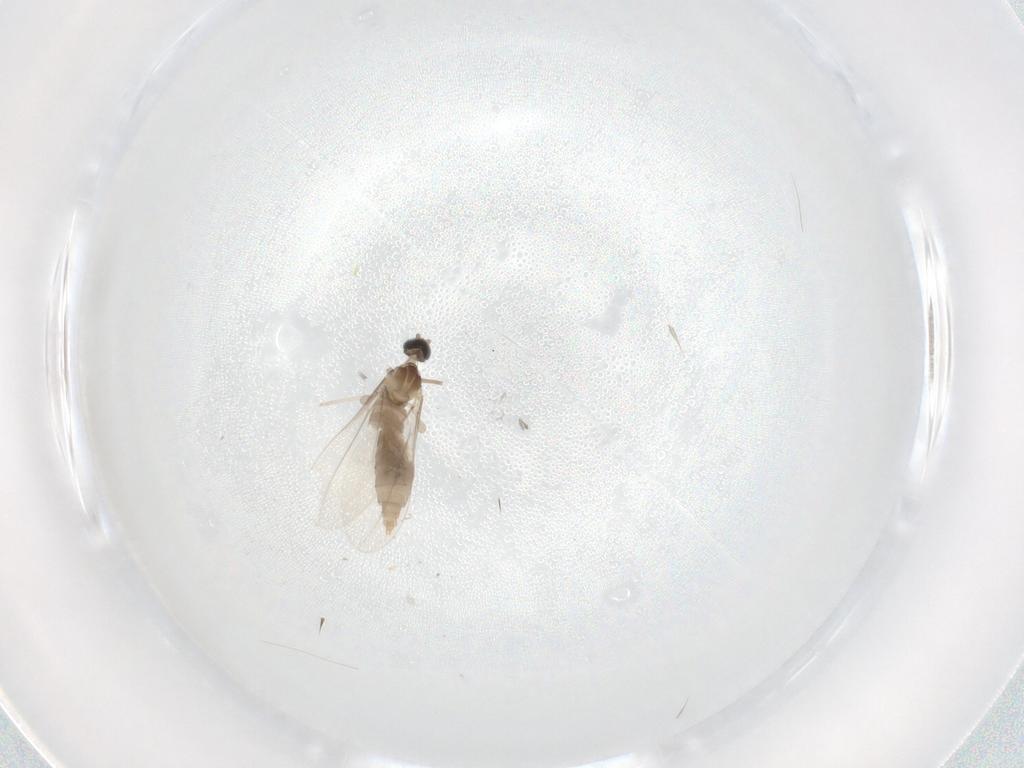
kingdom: Animalia
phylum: Arthropoda
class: Insecta
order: Diptera
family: Cecidomyiidae
